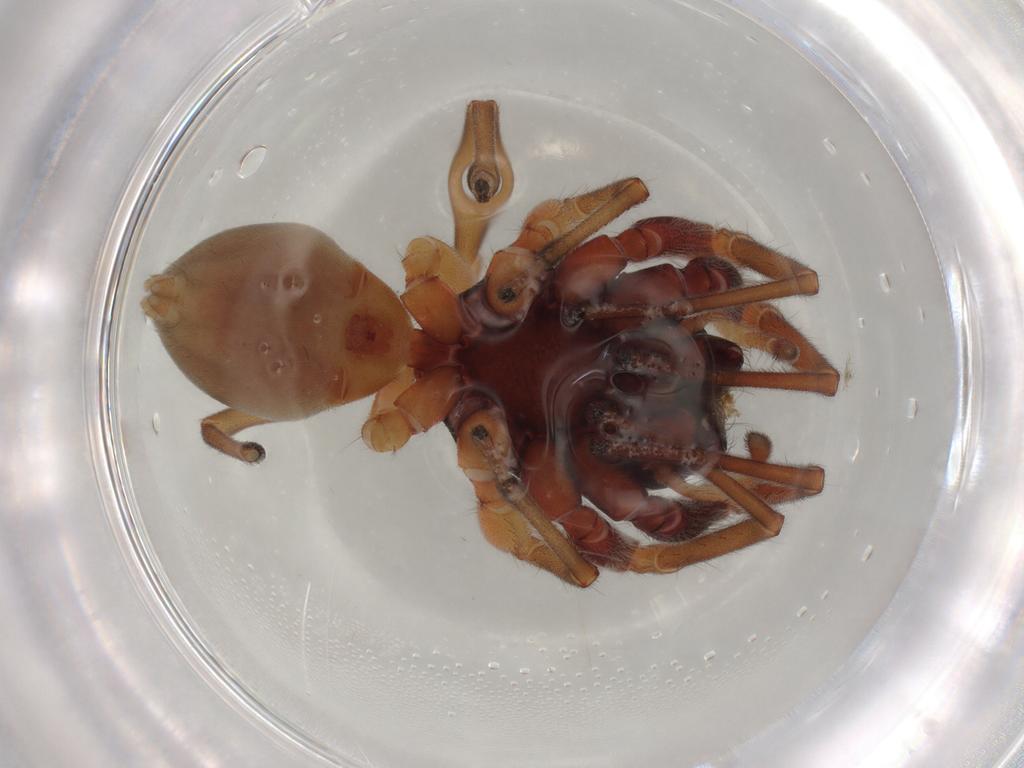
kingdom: Animalia
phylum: Arthropoda
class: Arachnida
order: Araneae
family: Trachelidae
